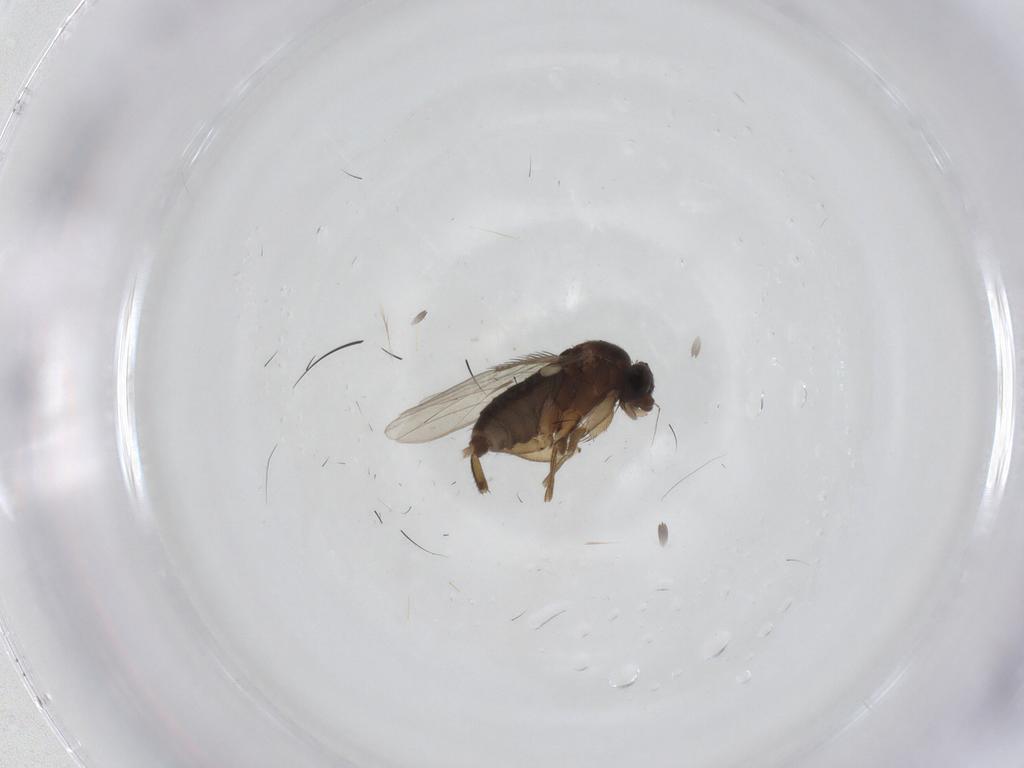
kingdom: Animalia
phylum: Arthropoda
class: Insecta
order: Diptera
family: Phoridae
